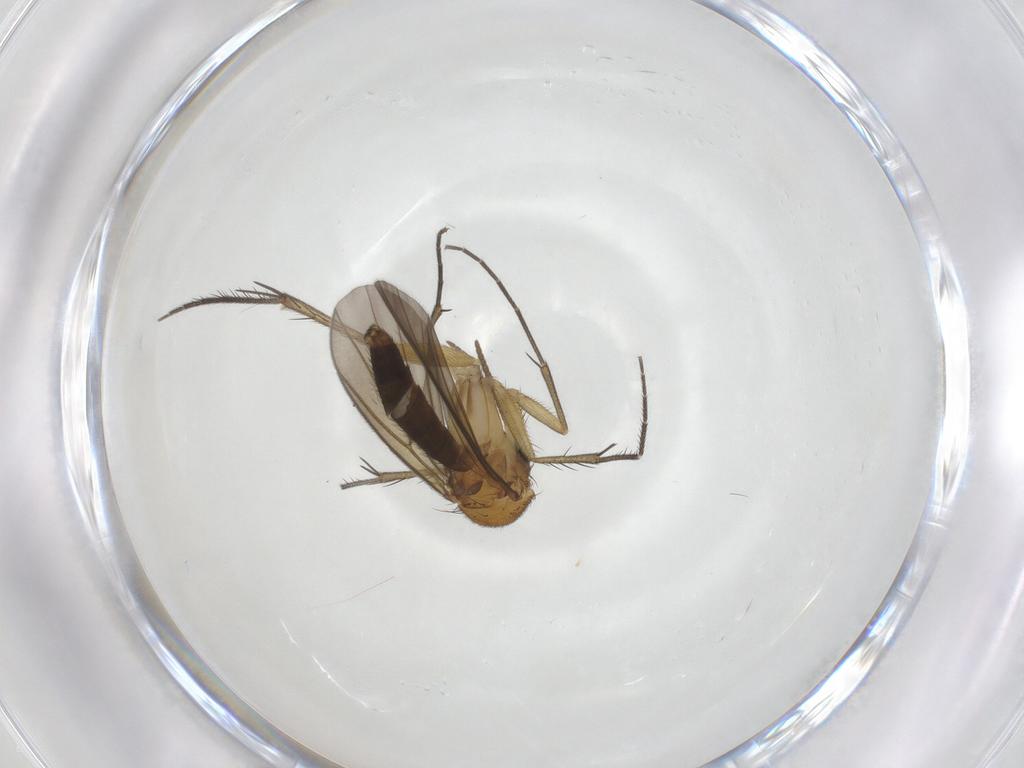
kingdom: Animalia
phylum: Arthropoda
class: Insecta
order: Diptera
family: Mycetophilidae
